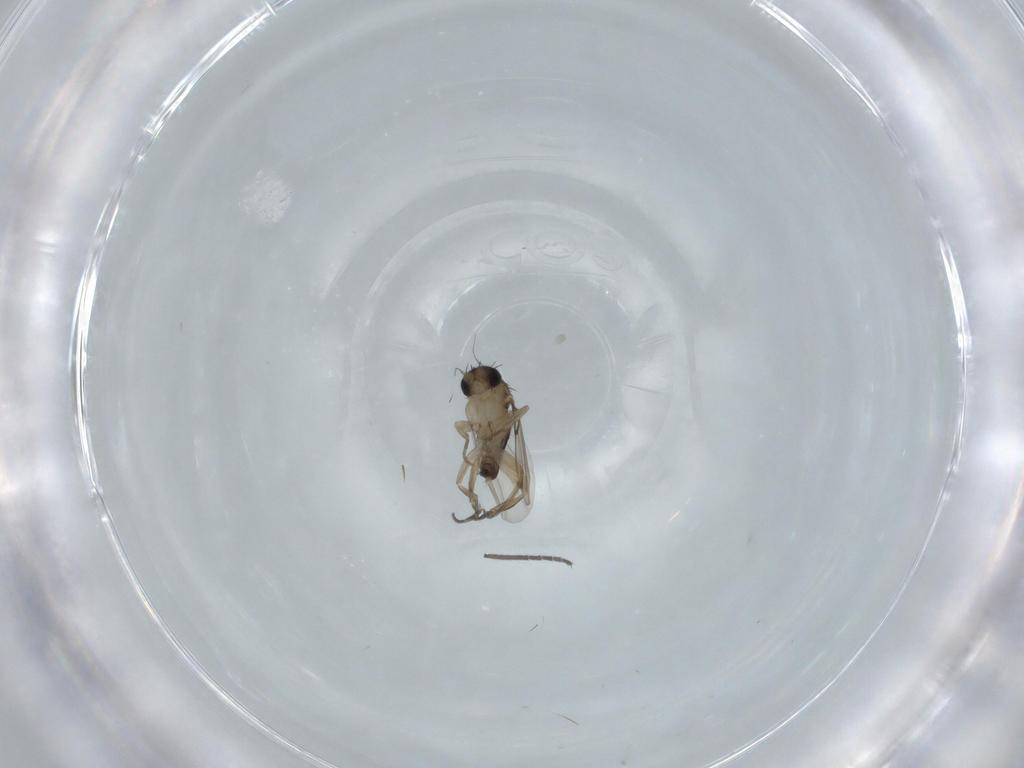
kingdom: Animalia
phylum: Arthropoda
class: Insecta
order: Diptera
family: Phoridae
